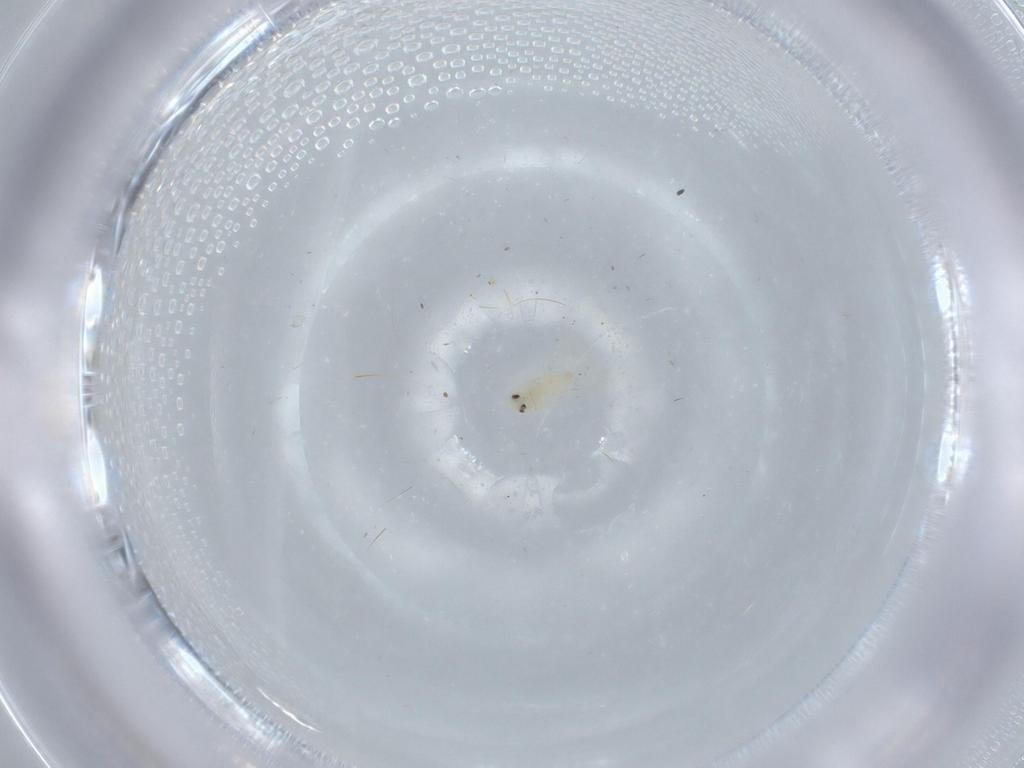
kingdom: Animalia
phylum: Arthropoda
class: Insecta
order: Hemiptera
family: Aleyrodidae
